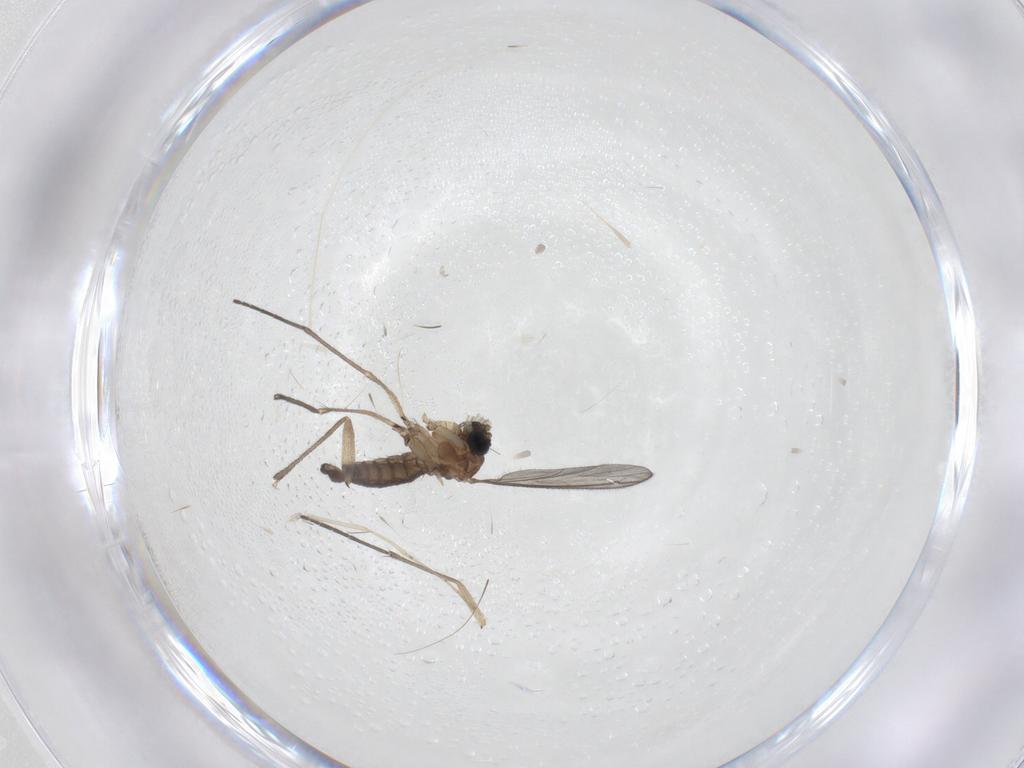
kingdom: Animalia
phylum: Arthropoda
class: Insecta
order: Diptera
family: Sciaridae
